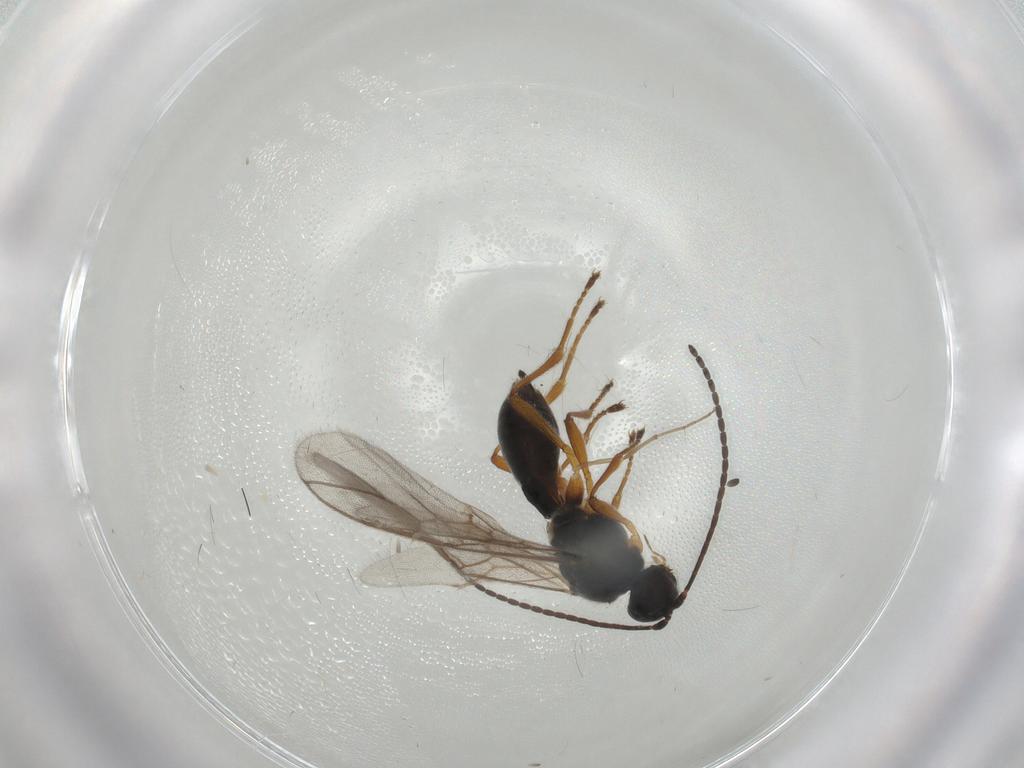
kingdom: Animalia
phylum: Arthropoda
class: Insecta
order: Hymenoptera
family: Braconidae
